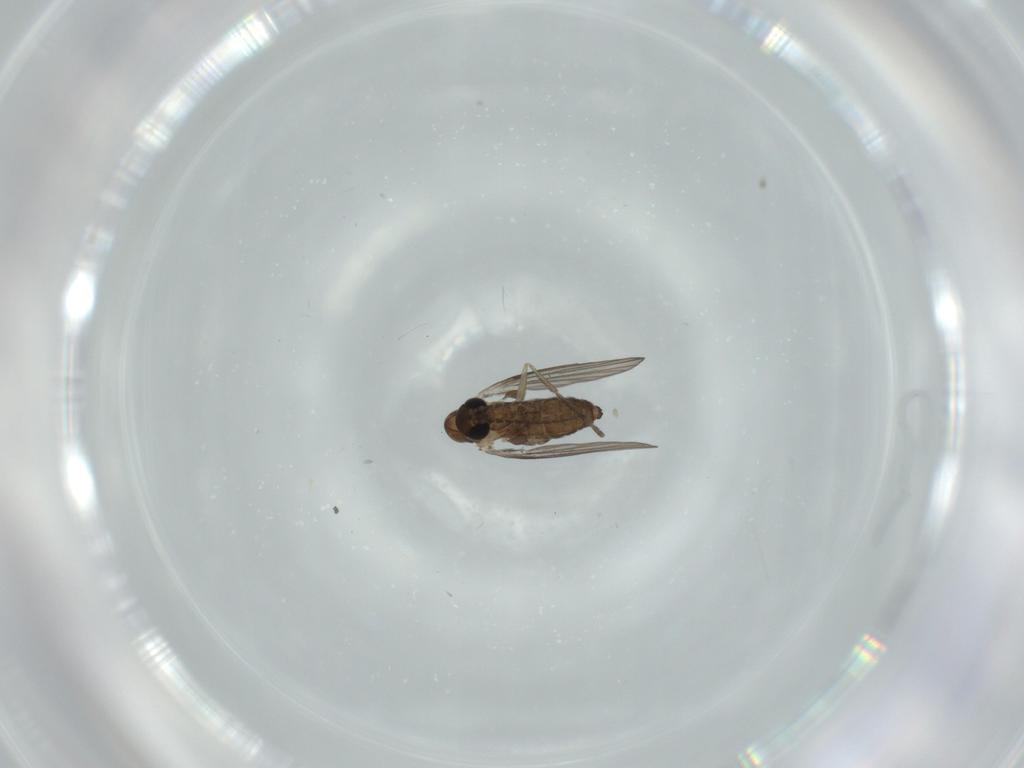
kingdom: Animalia
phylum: Arthropoda
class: Insecta
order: Diptera
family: Psychodidae
